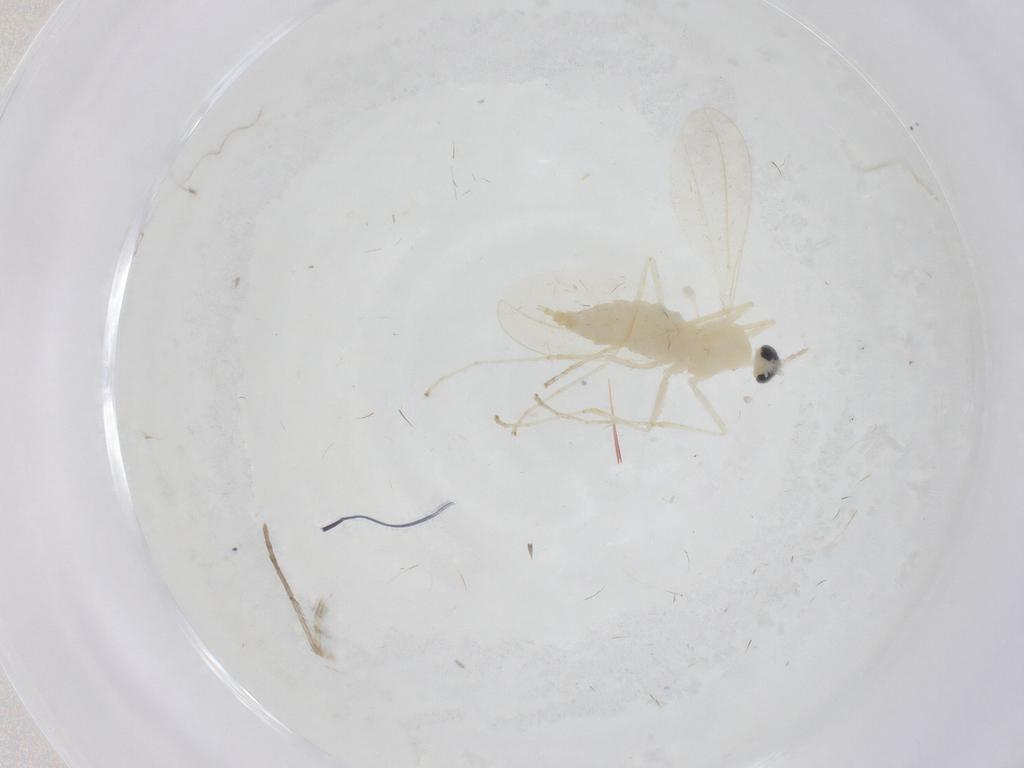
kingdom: Animalia
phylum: Arthropoda
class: Insecta
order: Diptera
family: Cecidomyiidae
